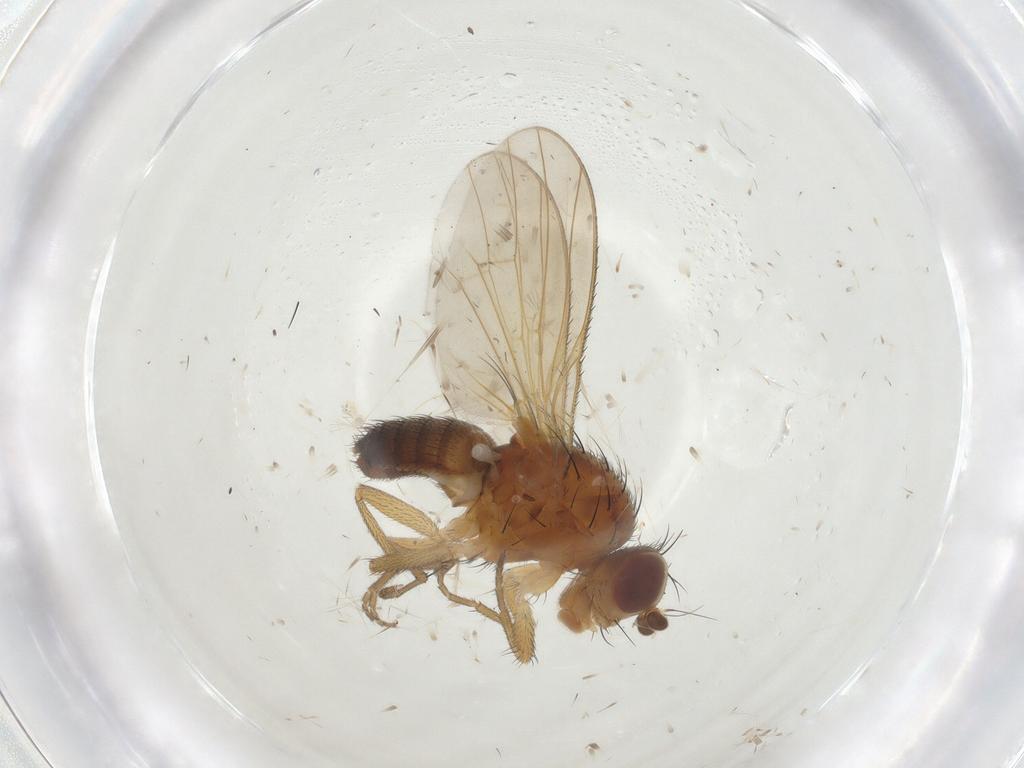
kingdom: Animalia
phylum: Arthropoda
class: Insecta
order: Diptera
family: Heleomyzidae
